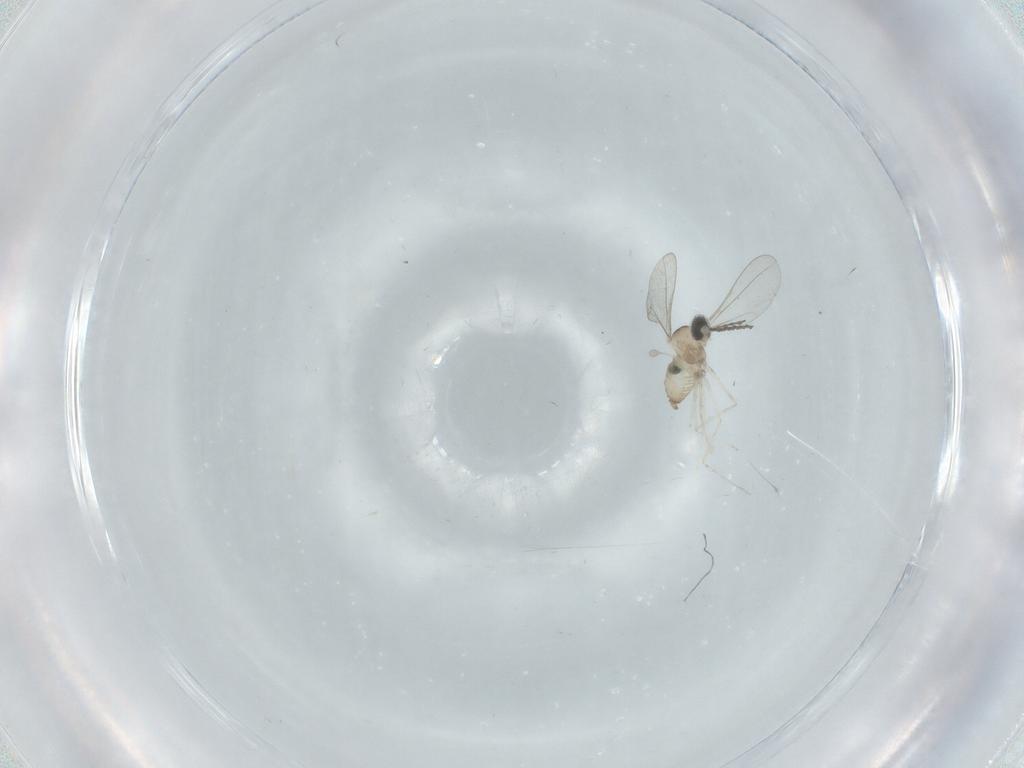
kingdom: Animalia
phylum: Arthropoda
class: Insecta
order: Diptera
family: Cecidomyiidae
